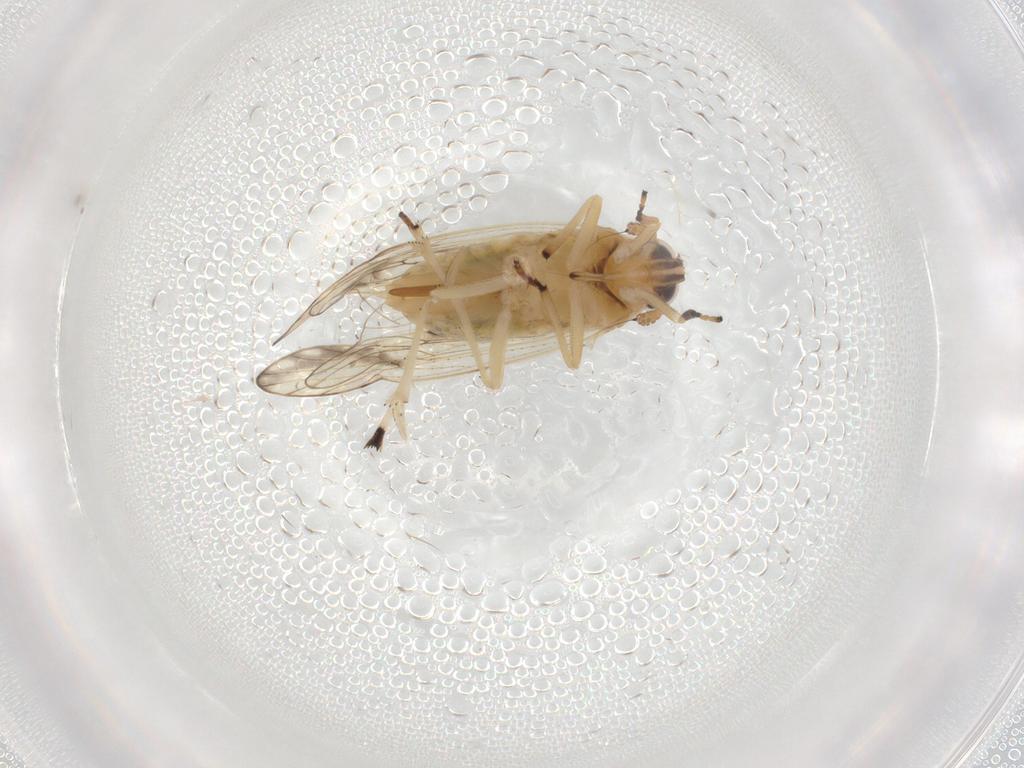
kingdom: Animalia
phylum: Arthropoda
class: Insecta
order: Hemiptera
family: Delphacidae
